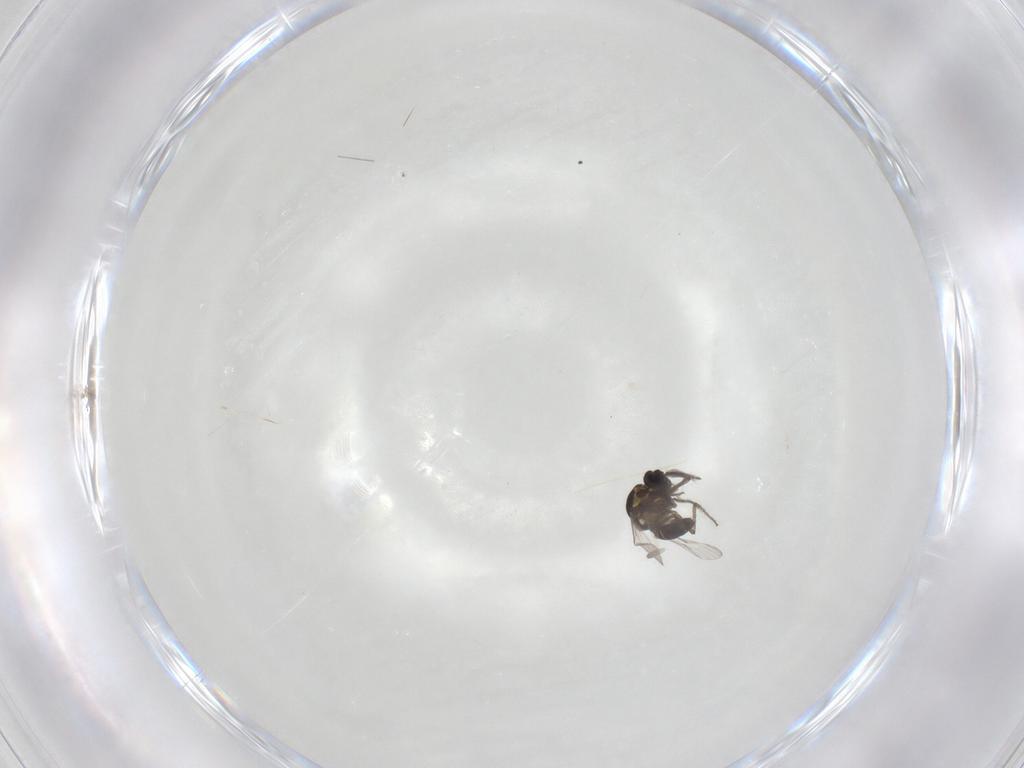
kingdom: Animalia
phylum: Arthropoda
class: Insecta
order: Diptera
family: Ceratopogonidae
